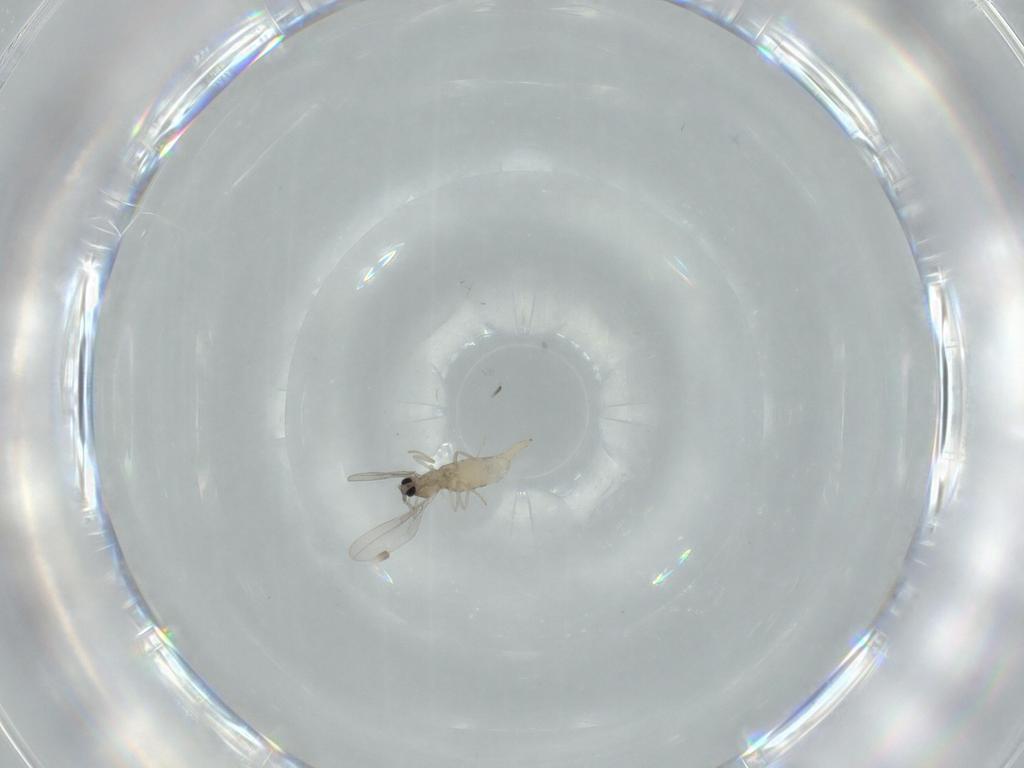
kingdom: Animalia
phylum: Arthropoda
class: Insecta
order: Diptera
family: Cecidomyiidae
